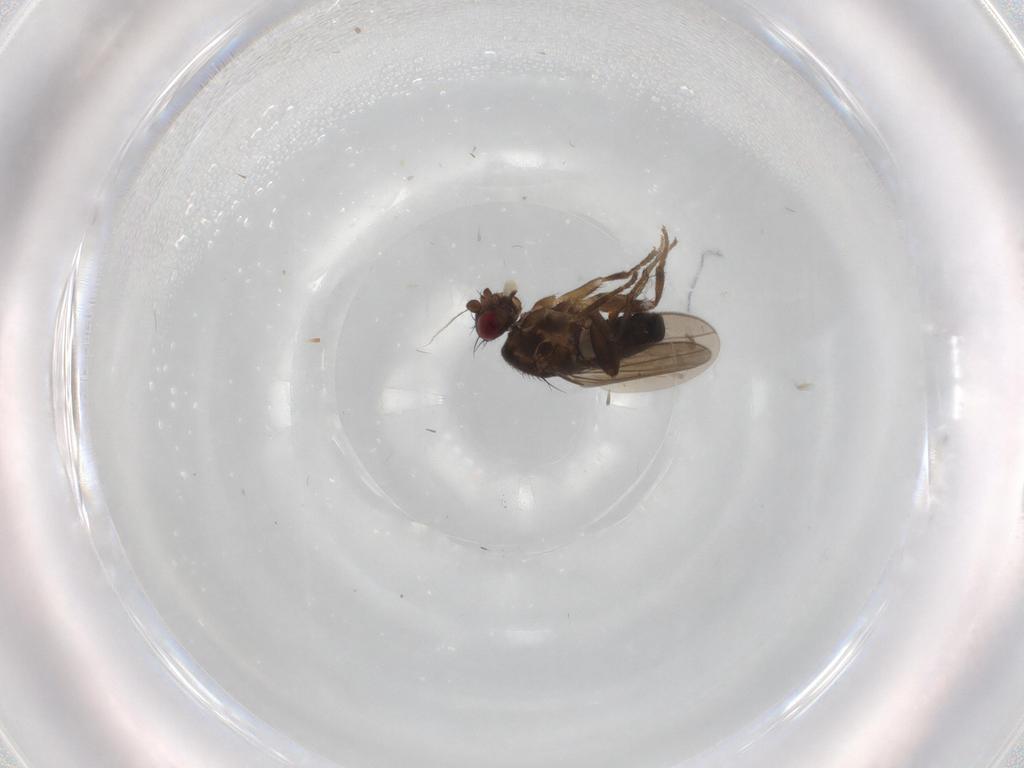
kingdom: Animalia
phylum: Arthropoda
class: Insecta
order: Diptera
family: Sphaeroceridae
